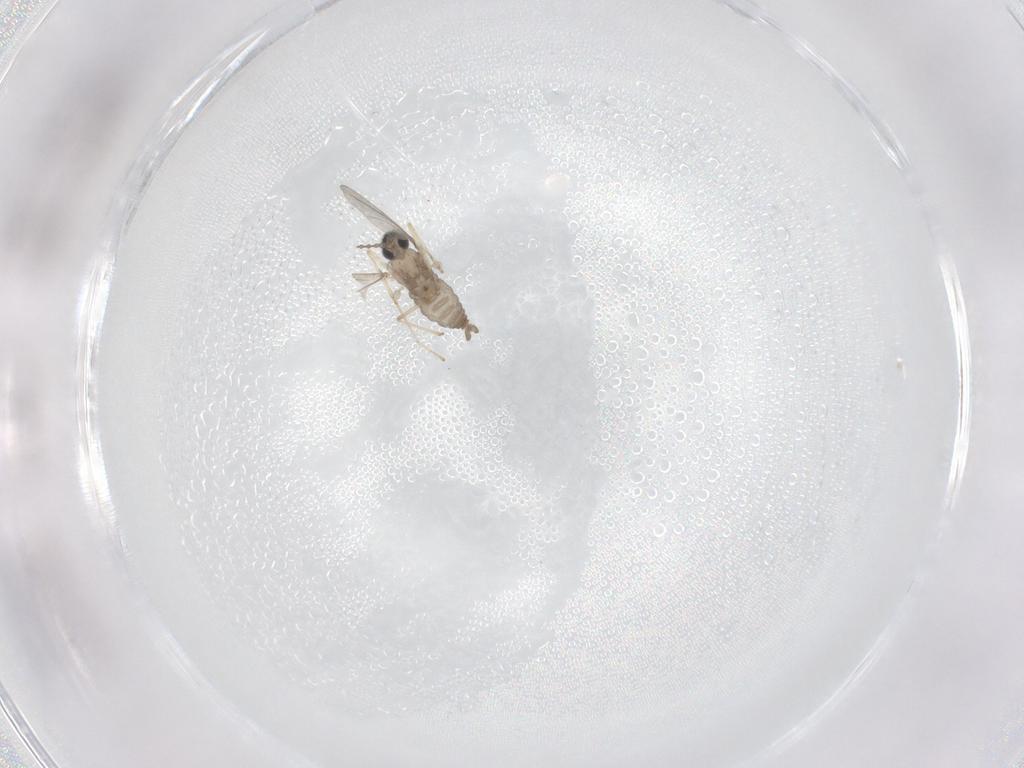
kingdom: Animalia
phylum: Arthropoda
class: Insecta
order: Diptera
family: Cecidomyiidae
